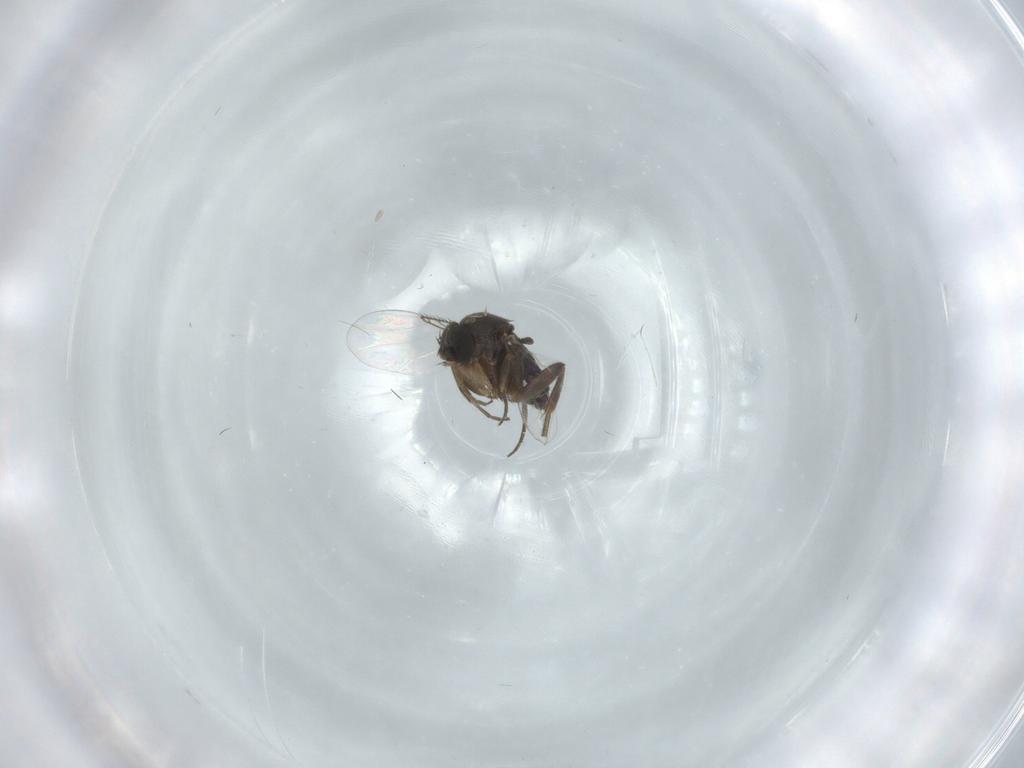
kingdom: Animalia
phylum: Arthropoda
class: Insecta
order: Diptera
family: Phoridae
